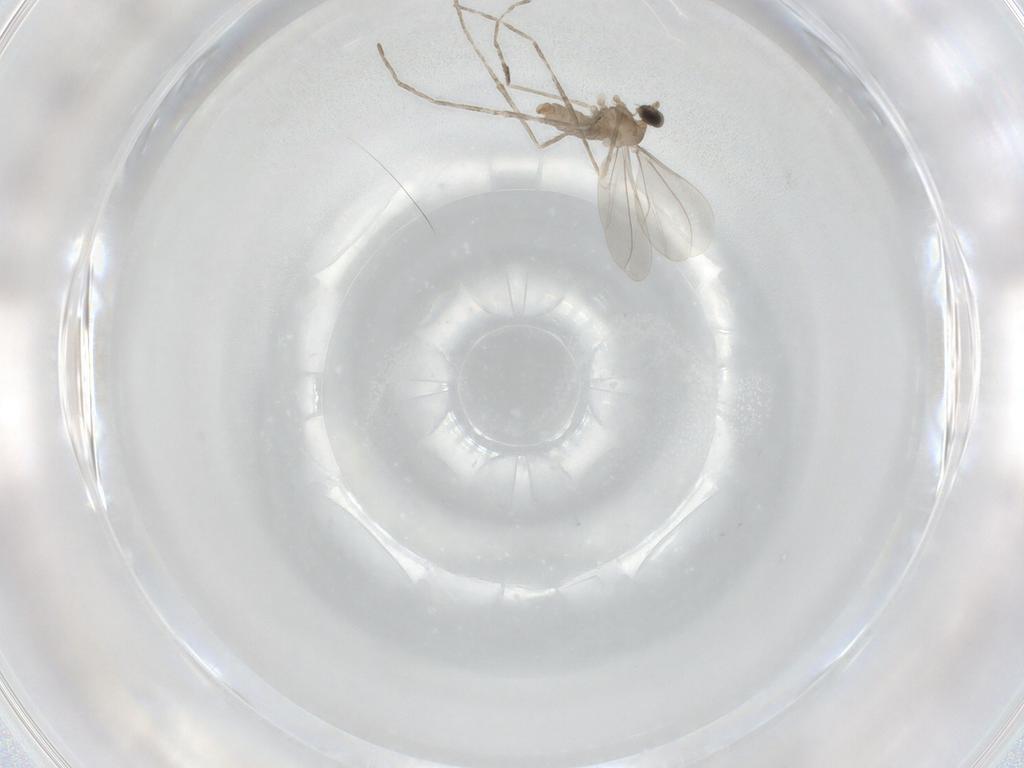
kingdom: Animalia
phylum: Arthropoda
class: Insecta
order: Diptera
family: Cecidomyiidae
